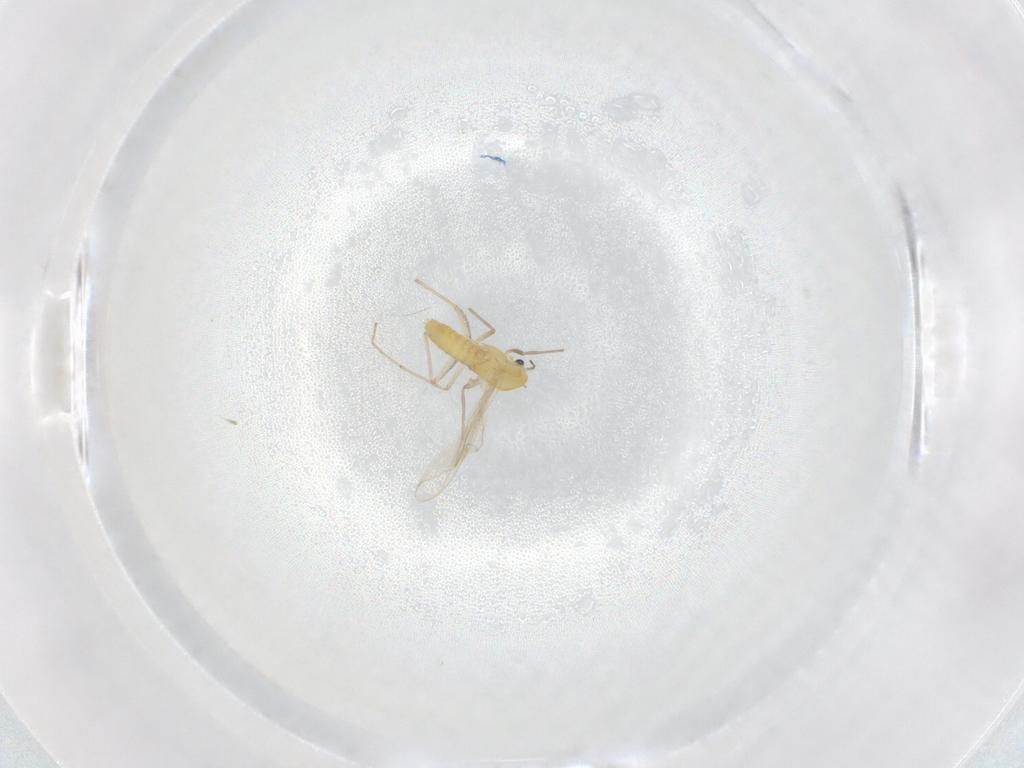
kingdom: Animalia
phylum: Arthropoda
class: Insecta
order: Diptera
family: Chironomidae
